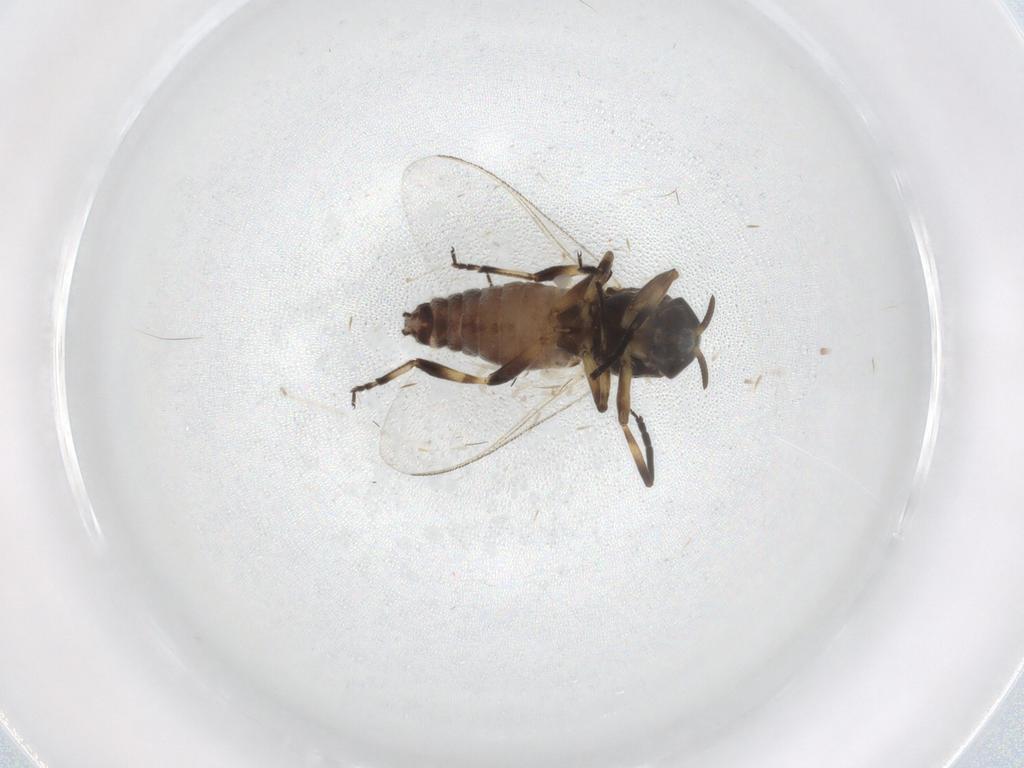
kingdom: Animalia
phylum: Arthropoda
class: Insecta
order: Diptera
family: Sciaridae
